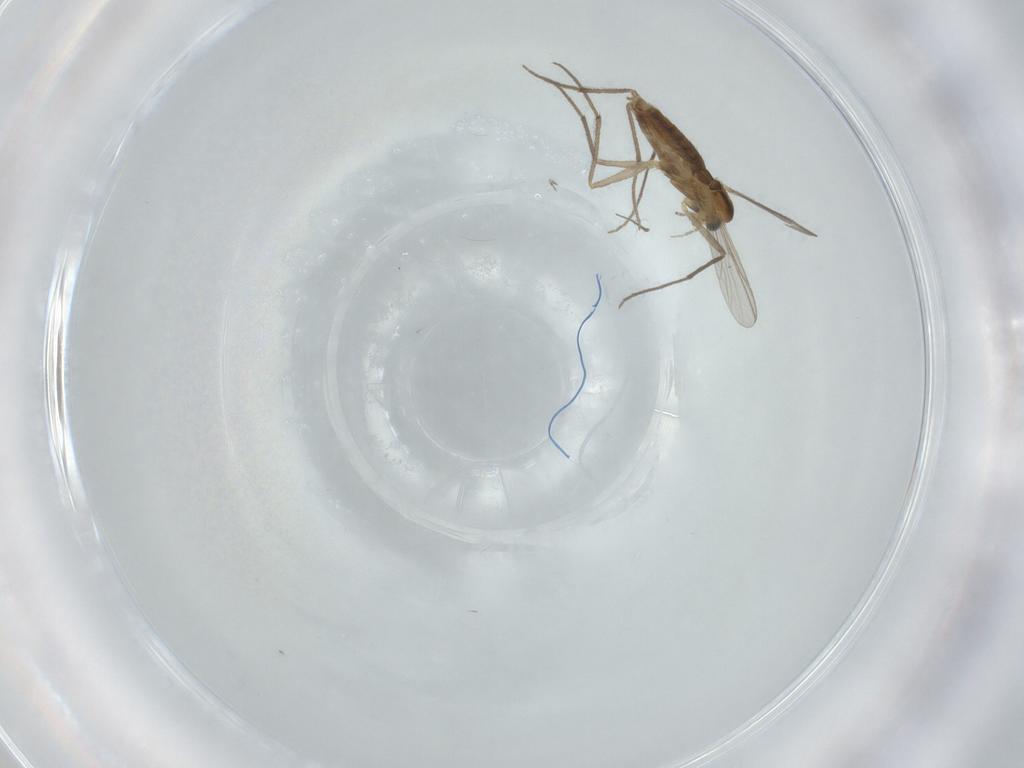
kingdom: Animalia
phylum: Arthropoda
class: Insecta
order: Diptera
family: Chironomidae
